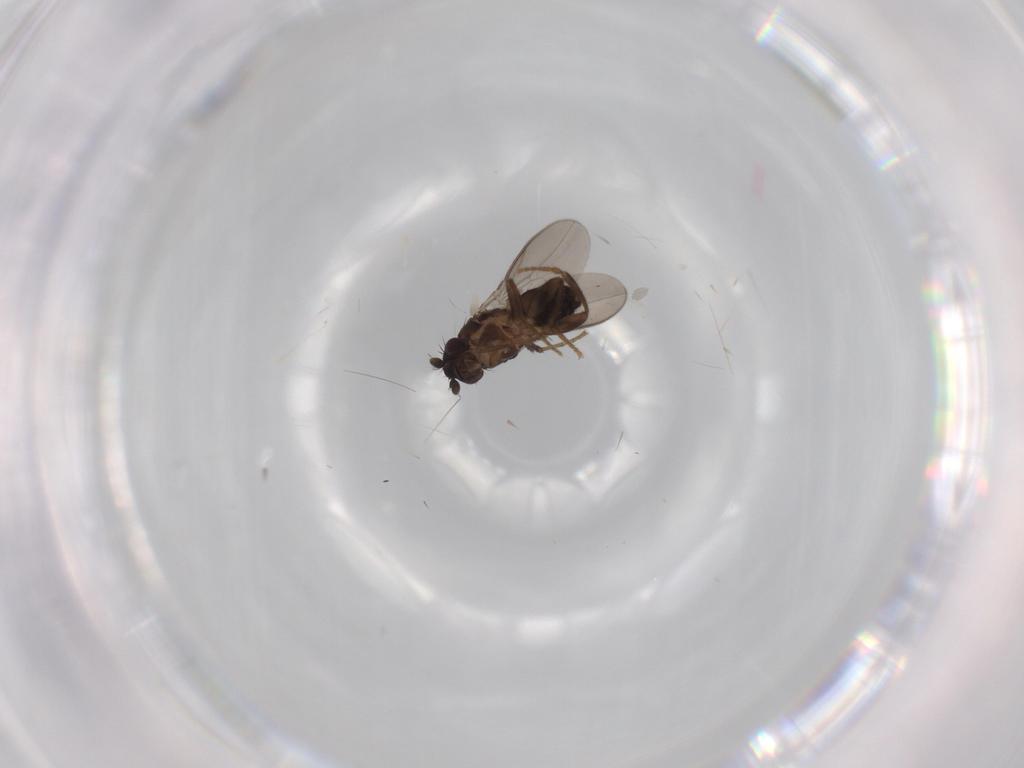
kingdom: Animalia
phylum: Arthropoda
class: Insecta
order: Diptera
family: Sphaeroceridae
